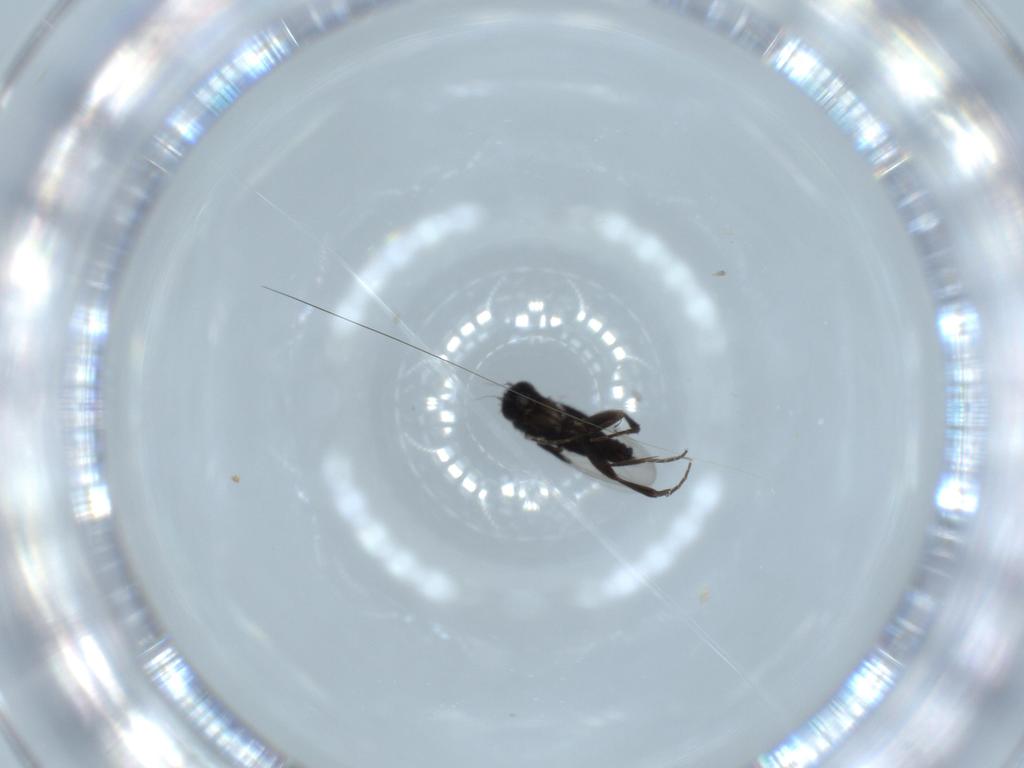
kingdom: Animalia
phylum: Arthropoda
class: Insecta
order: Diptera
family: Phoridae
